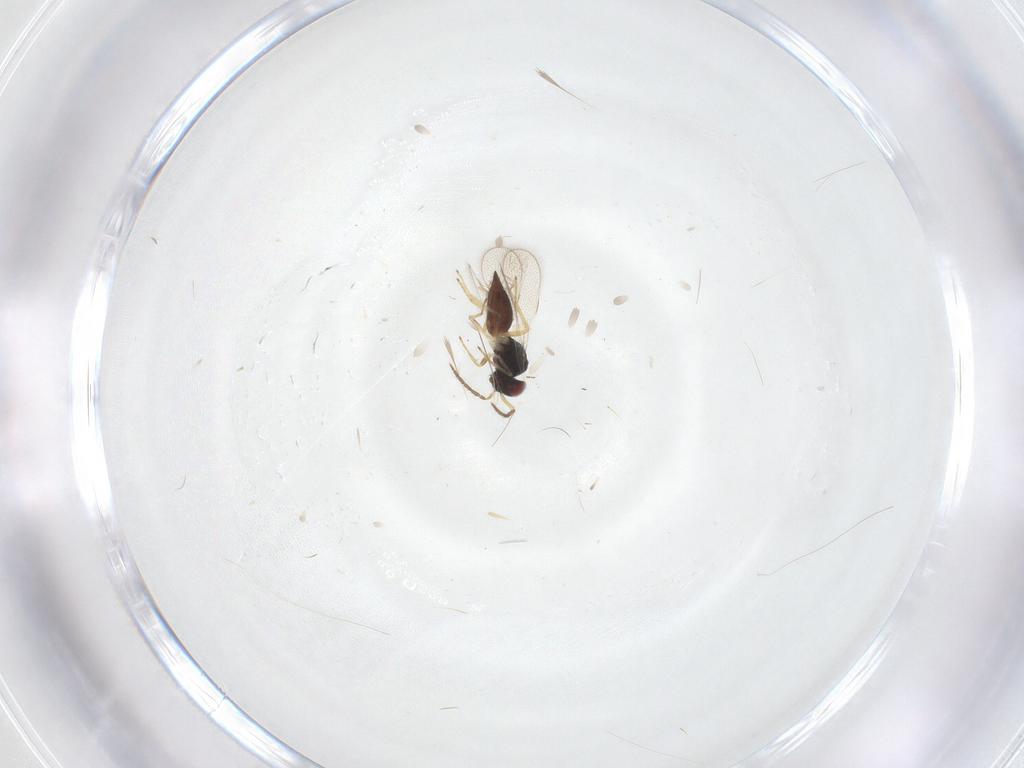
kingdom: Animalia
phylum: Arthropoda
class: Insecta
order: Hymenoptera
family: Eulophidae
